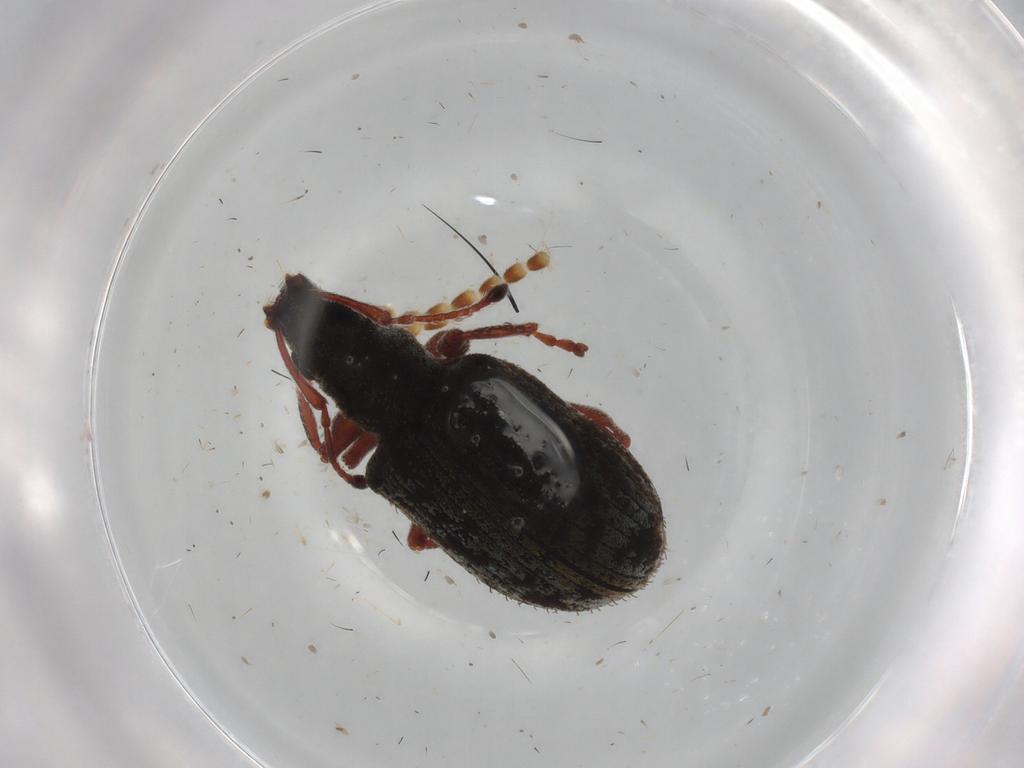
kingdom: Animalia
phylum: Arthropoda
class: Insecta
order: Coleoptera
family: Curculionidae
